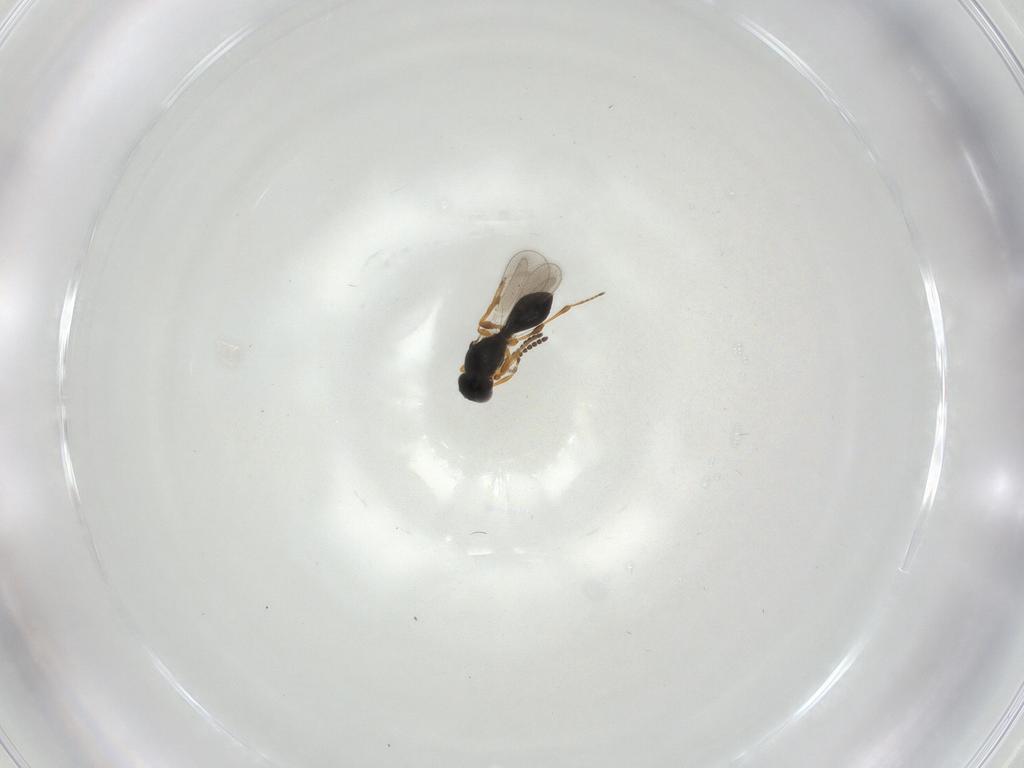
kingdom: Animalia
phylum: Arthropoda
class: Insecta
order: Hymenoptera
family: Platygastridae
